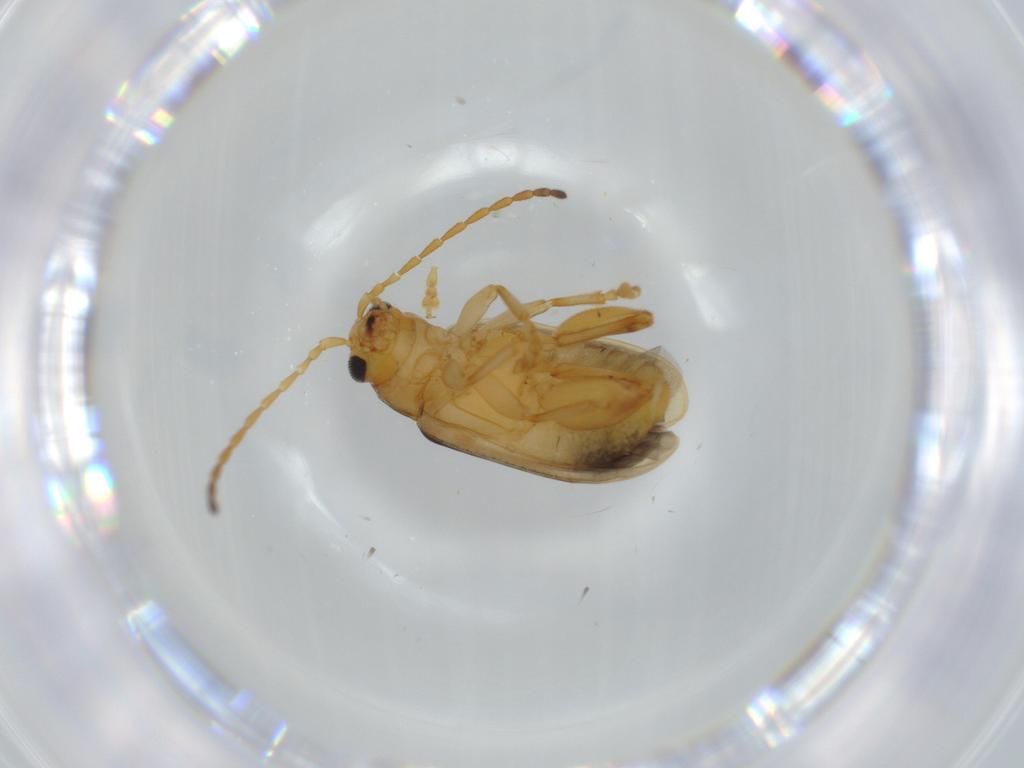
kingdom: Animalia
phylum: Arthropoda
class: Insecta
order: Coleoptera
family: Chrysomelidae
